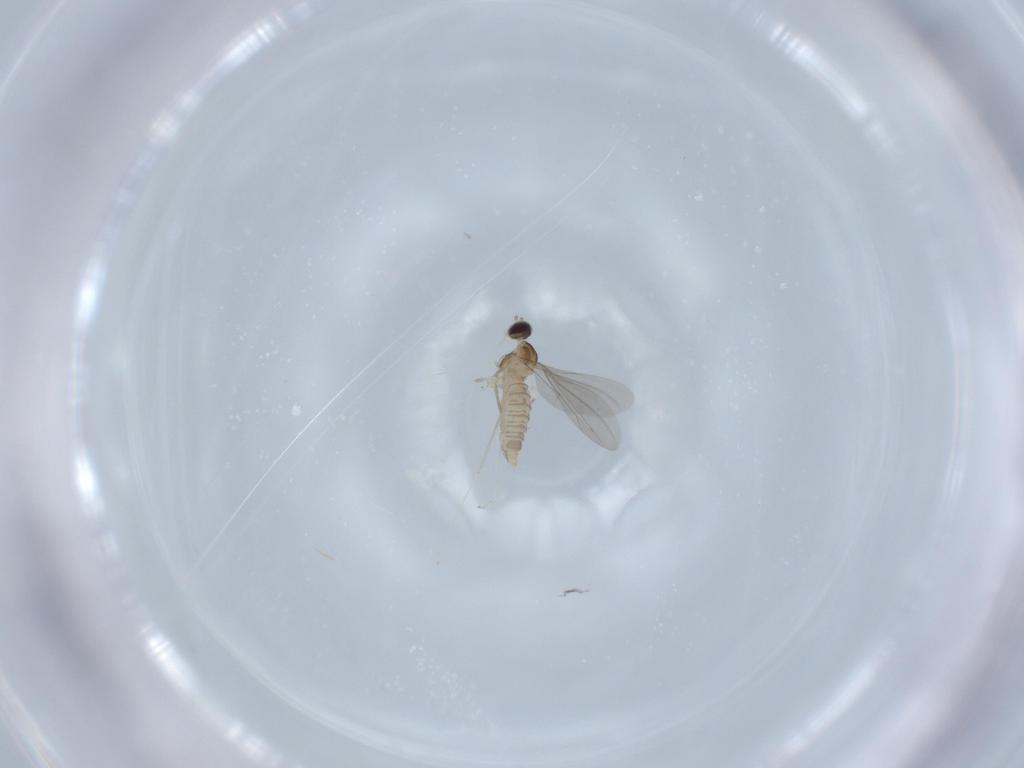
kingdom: Animalia
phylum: Arthropoda
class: Insecta
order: Diptera
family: Cecidomyiidae
